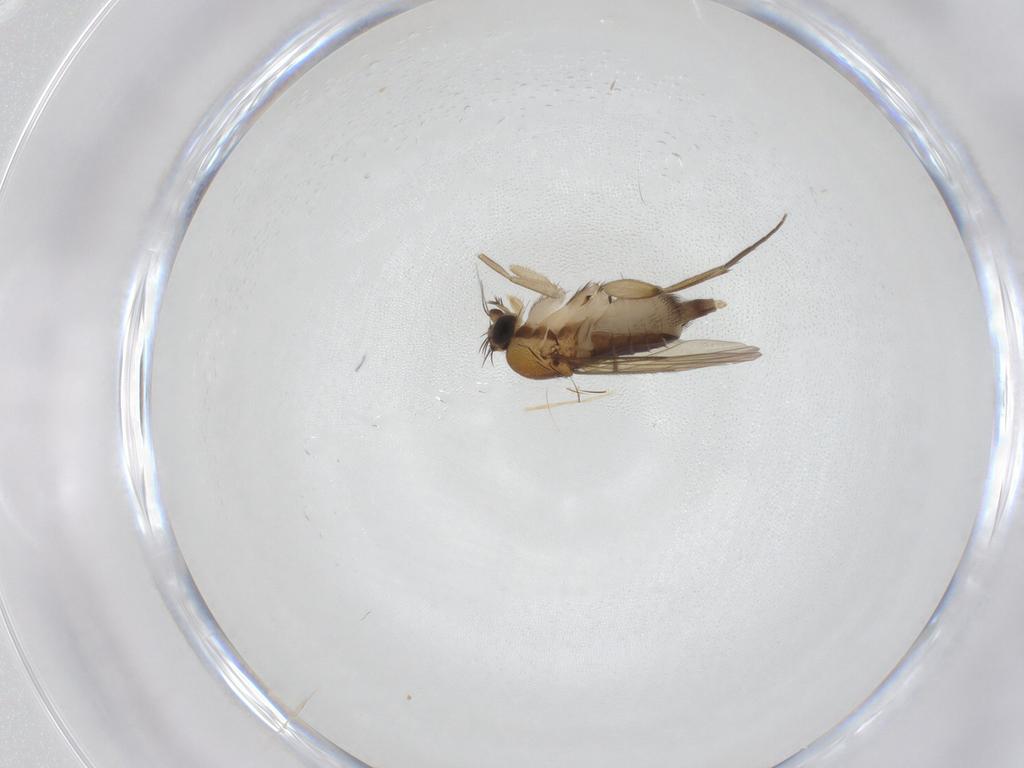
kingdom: Animalia
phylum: Arthropoda
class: Insecta
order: Diptera
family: Phoridae
